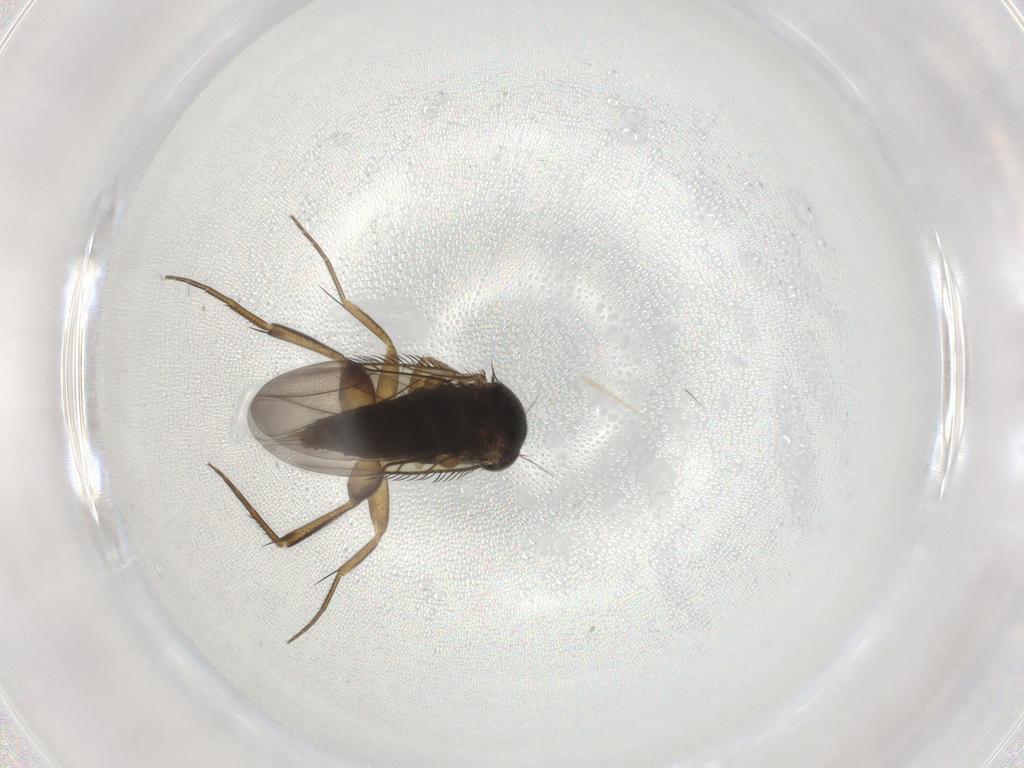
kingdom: Animalia
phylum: Arthropoda
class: Insecta
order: Diptera
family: Phoridae
